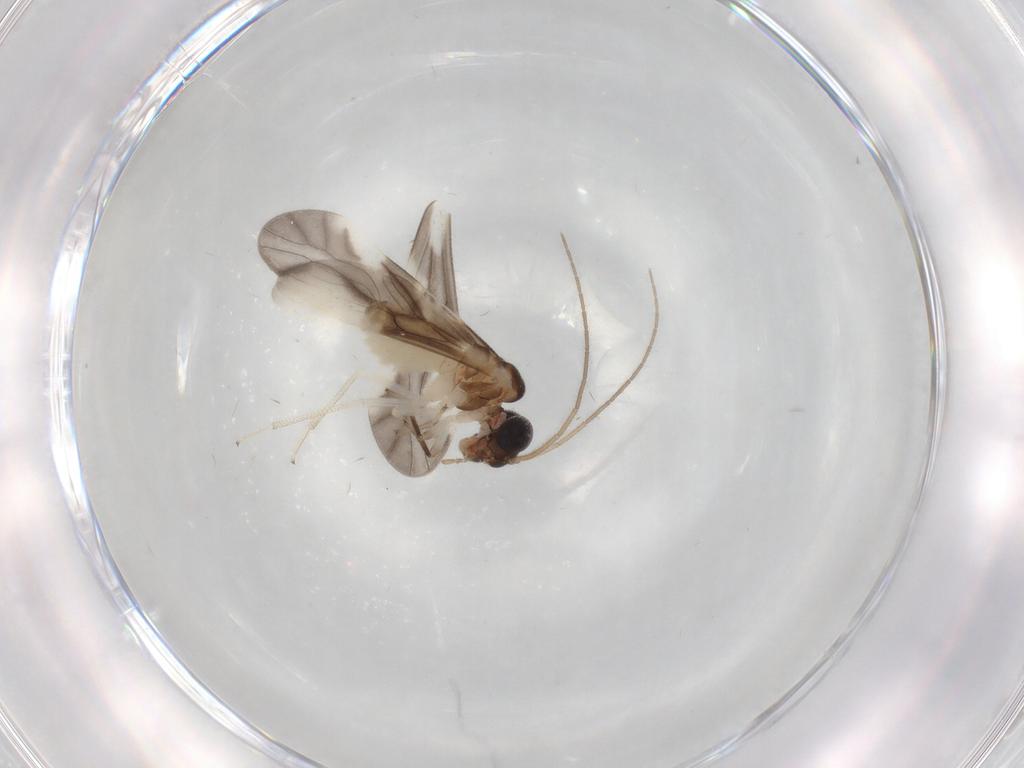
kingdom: Animalia
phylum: Arthropoda
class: Insecta
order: Psocodea
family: Caeciliusidae
